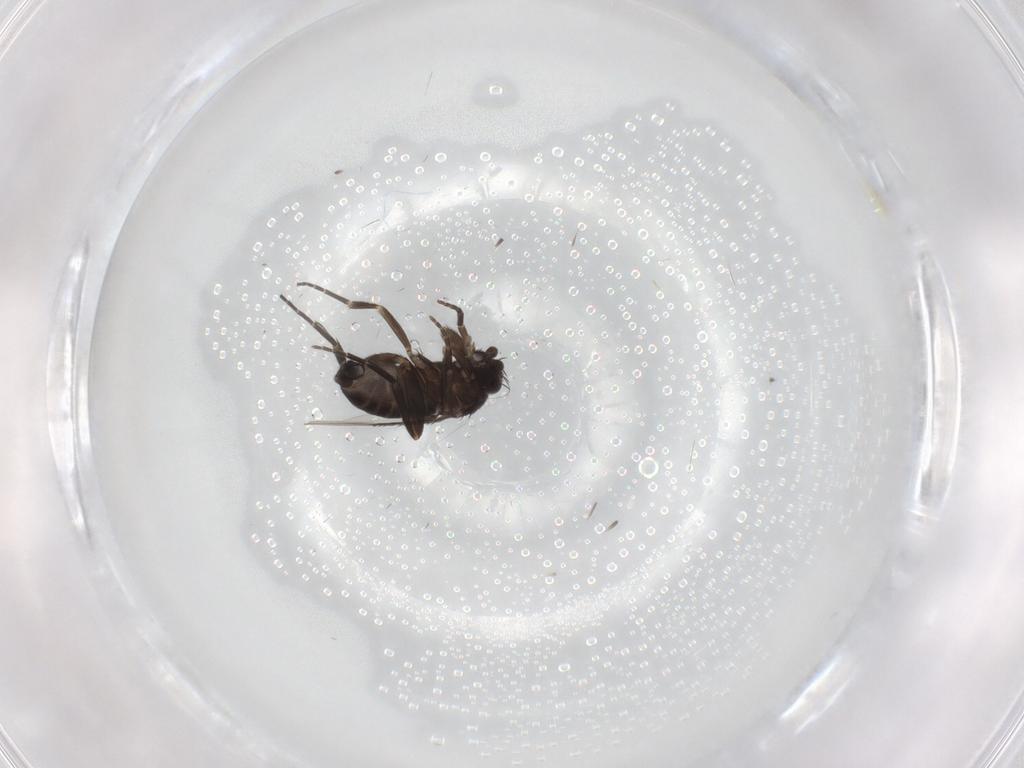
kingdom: Animalia
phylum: Arthropoda
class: Insecta
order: Diptera
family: Phoridae
